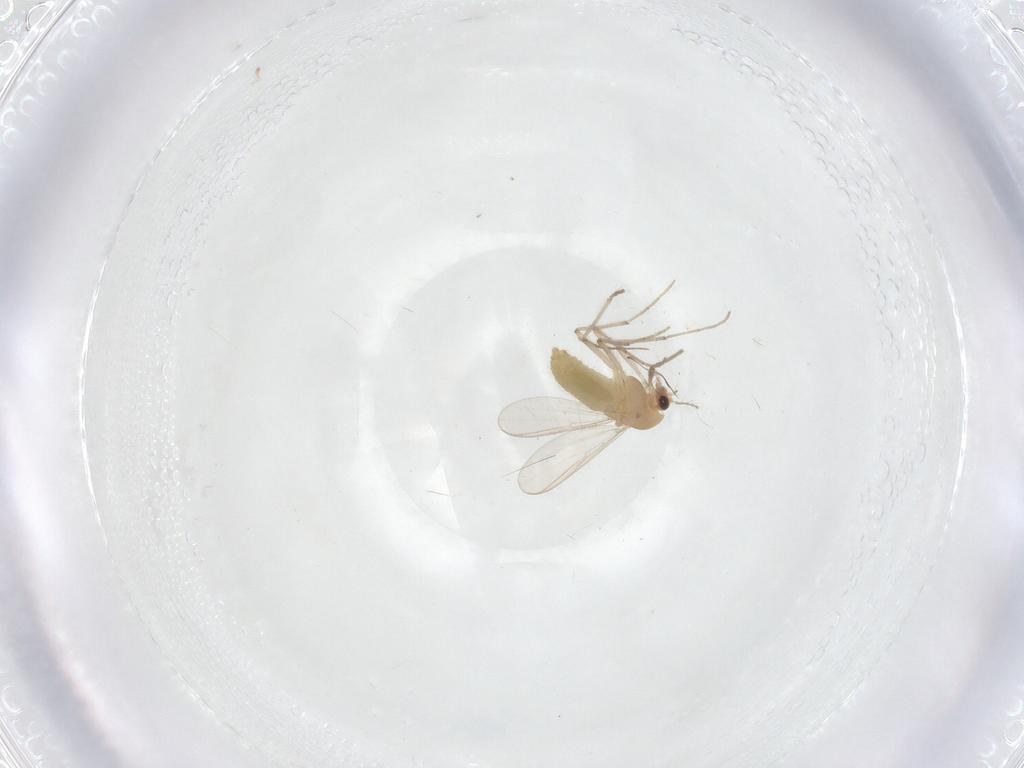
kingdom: Animalia
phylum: Arthropoda
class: Insecta
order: Diptera
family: Chironomidae
